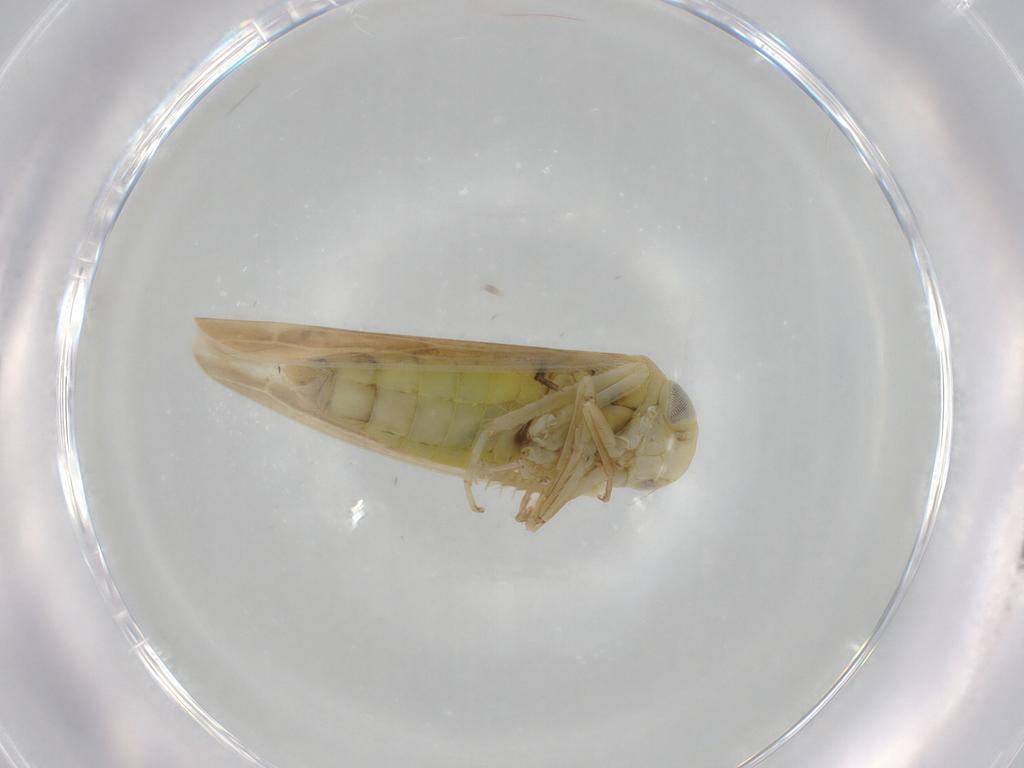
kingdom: Animalia
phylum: Arthropoda
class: Insecta
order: Hemiptera
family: Cicadellidae
